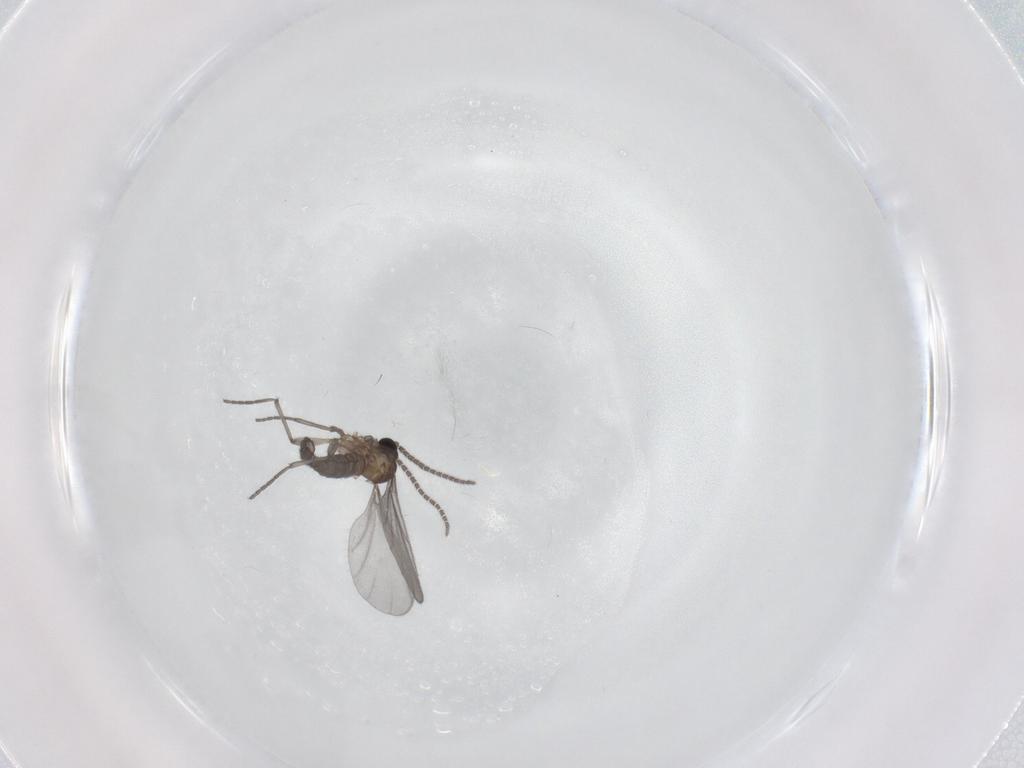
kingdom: Animalia
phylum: Arthropoda
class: Insecta
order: Diptera
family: Sciaridae
